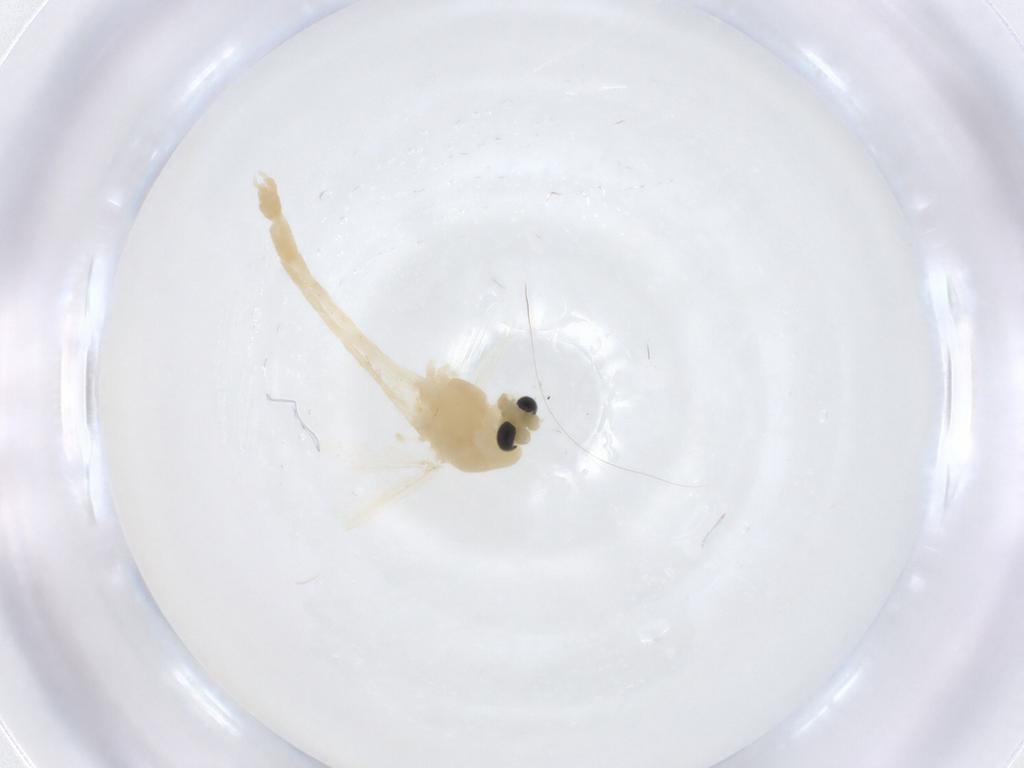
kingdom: Animalia
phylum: Arthropoda
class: Insecta
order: Diptera
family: Chironomidae
